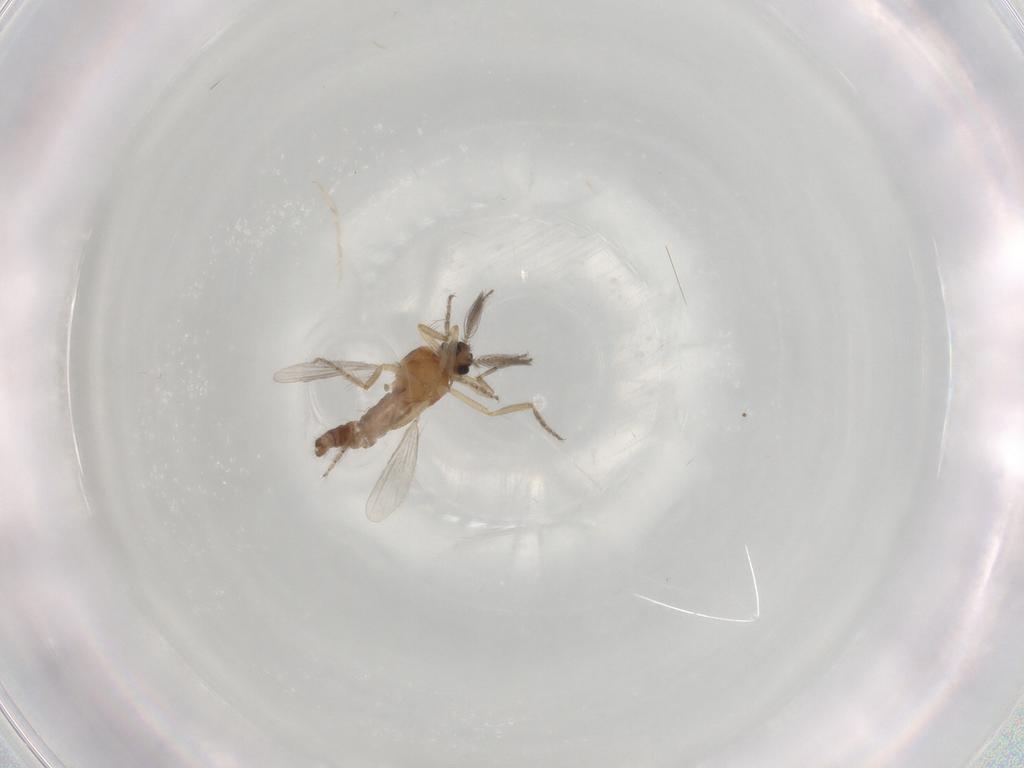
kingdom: Animalia
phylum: Arthropoda
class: Insecta
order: Diptera
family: Ceratopogonidae
